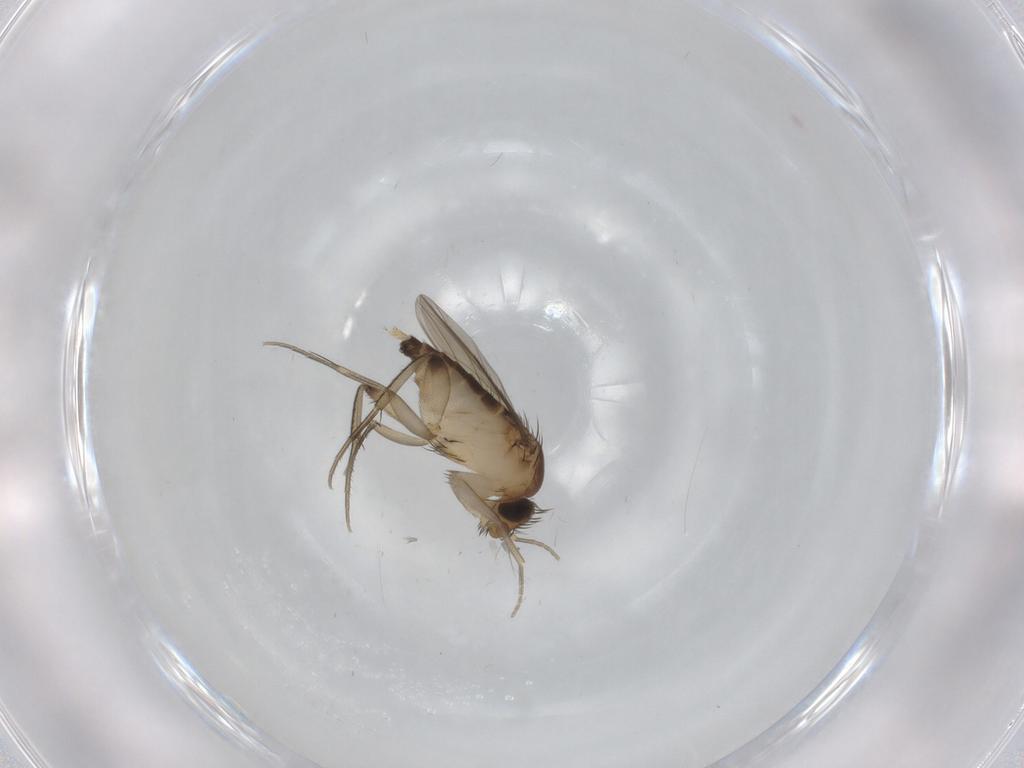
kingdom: Animalia
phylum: Arthropoda
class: Insecta
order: Diptera
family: Phoridae
